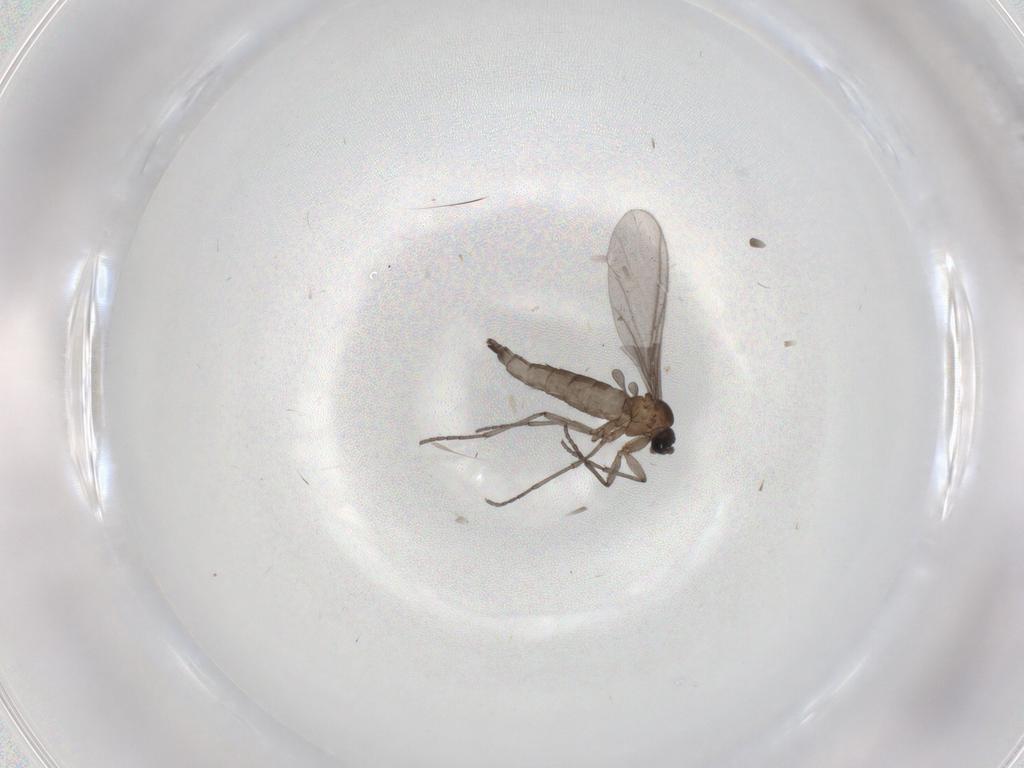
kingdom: Animalia
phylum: Arthropoda
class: Insecta
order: Diptera
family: Sciaridae
